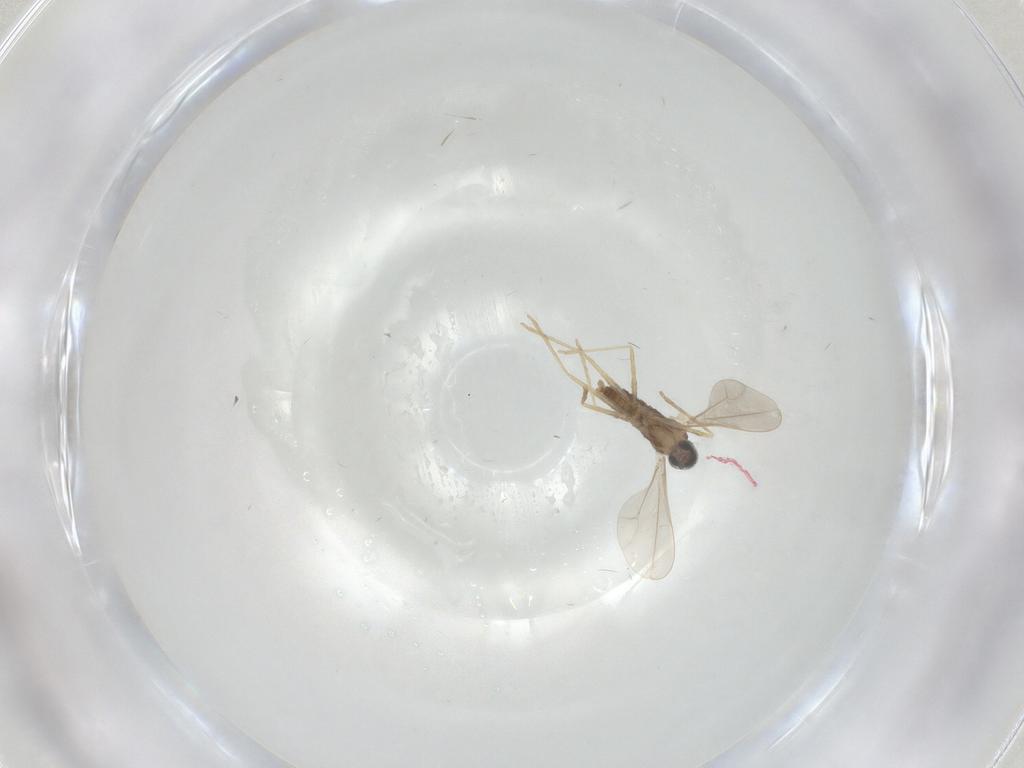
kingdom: Animalia
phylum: Arthropoda
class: Insecta
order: Diptera
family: Cecidomyiidae
